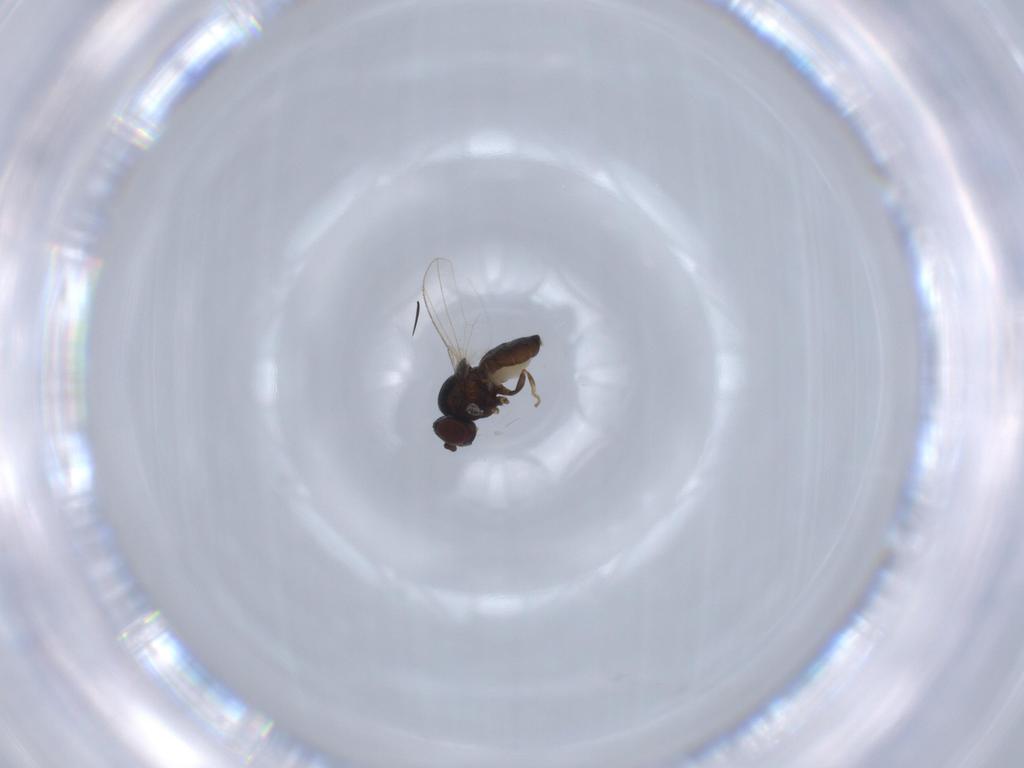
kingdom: Animalia
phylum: Arthropoda
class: Insecta
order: Diptera
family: Ephydridae
